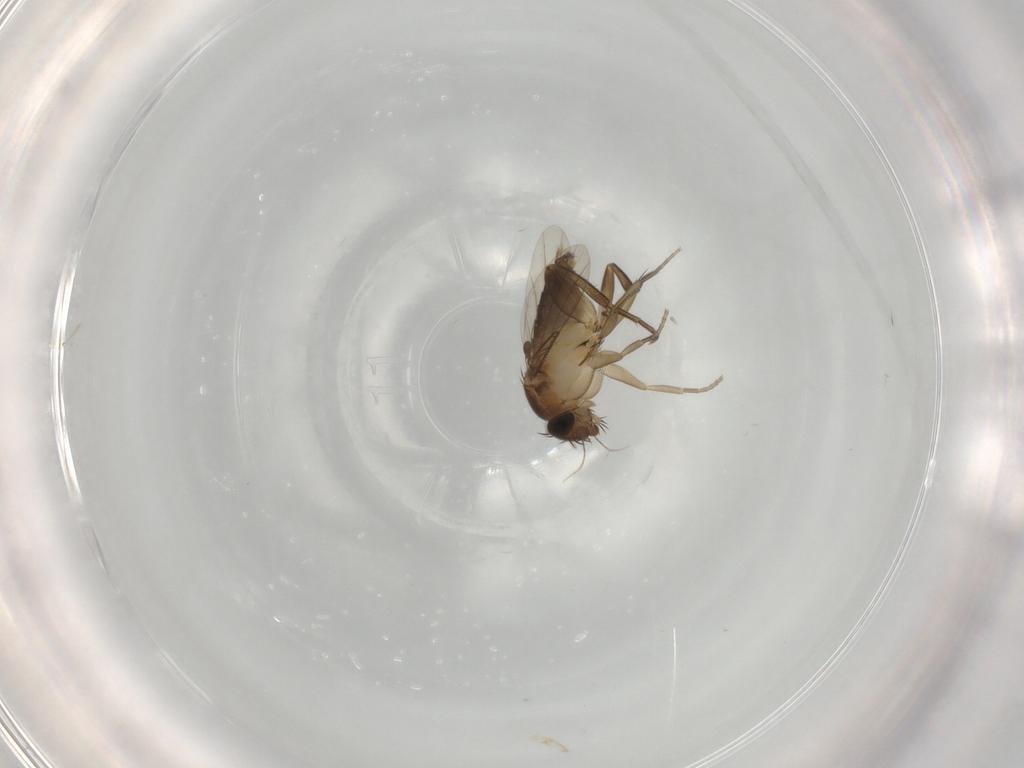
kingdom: Animalia
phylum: Arthropoda
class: Insecta
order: Diptera
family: Phoridae
